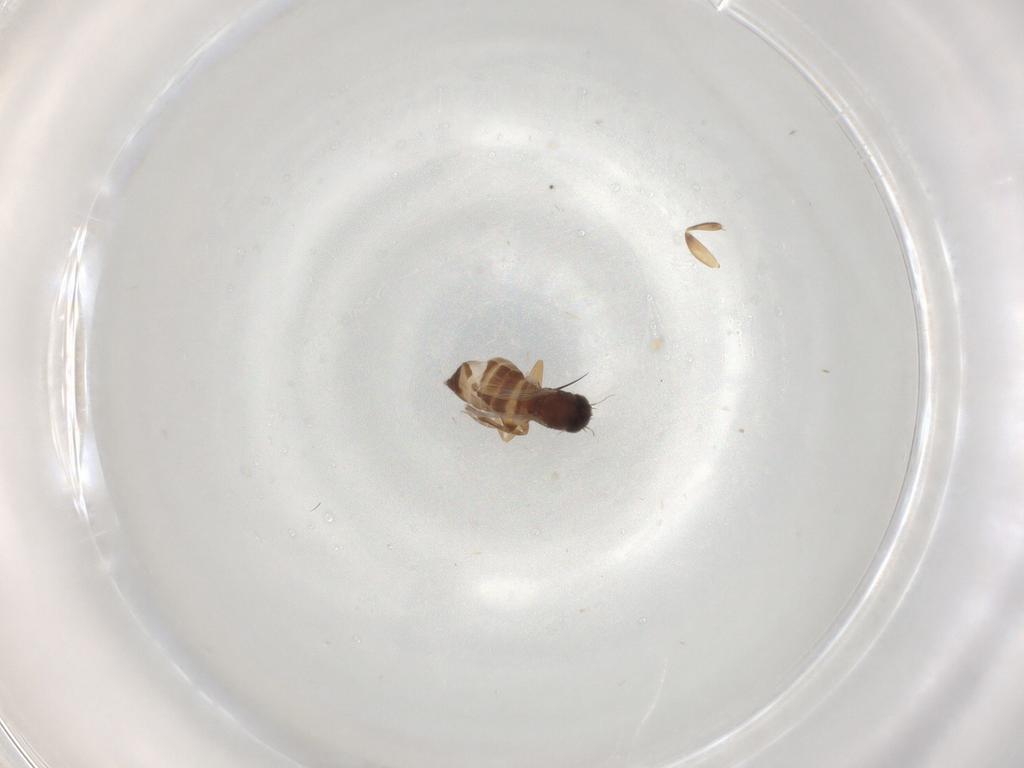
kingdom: Animalia
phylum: Arthropoda
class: Insecta
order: Diptera
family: Phoridae
